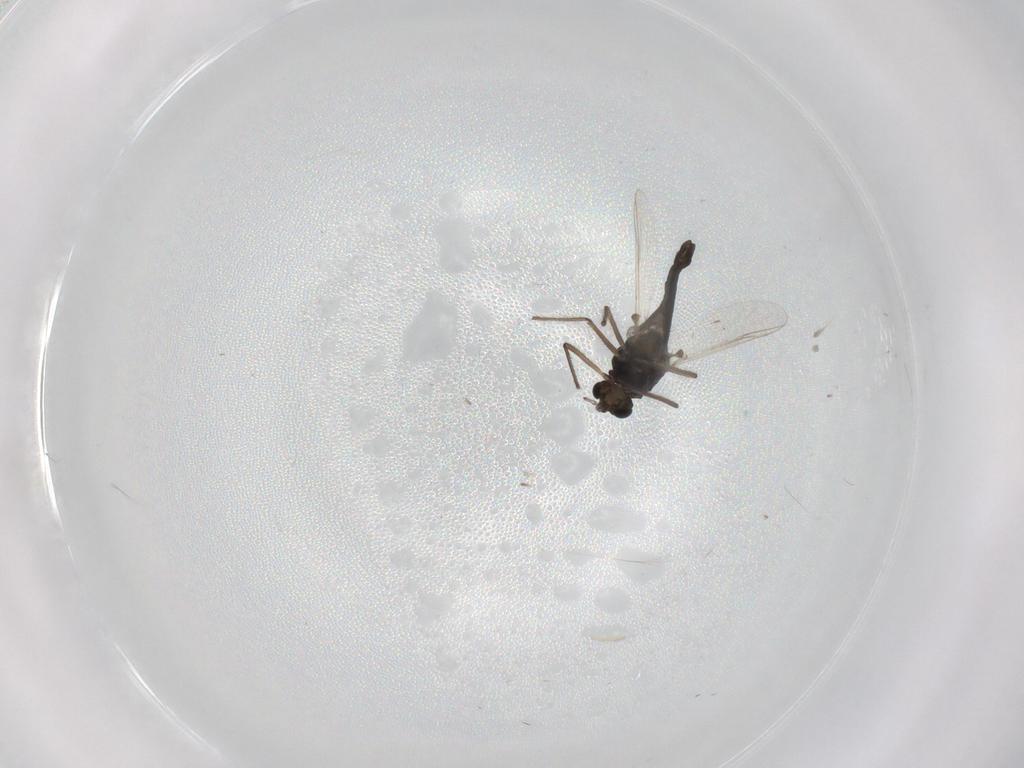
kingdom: Animalia
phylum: Arthropoda
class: Insecta
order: Diptera
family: Chironomidae
